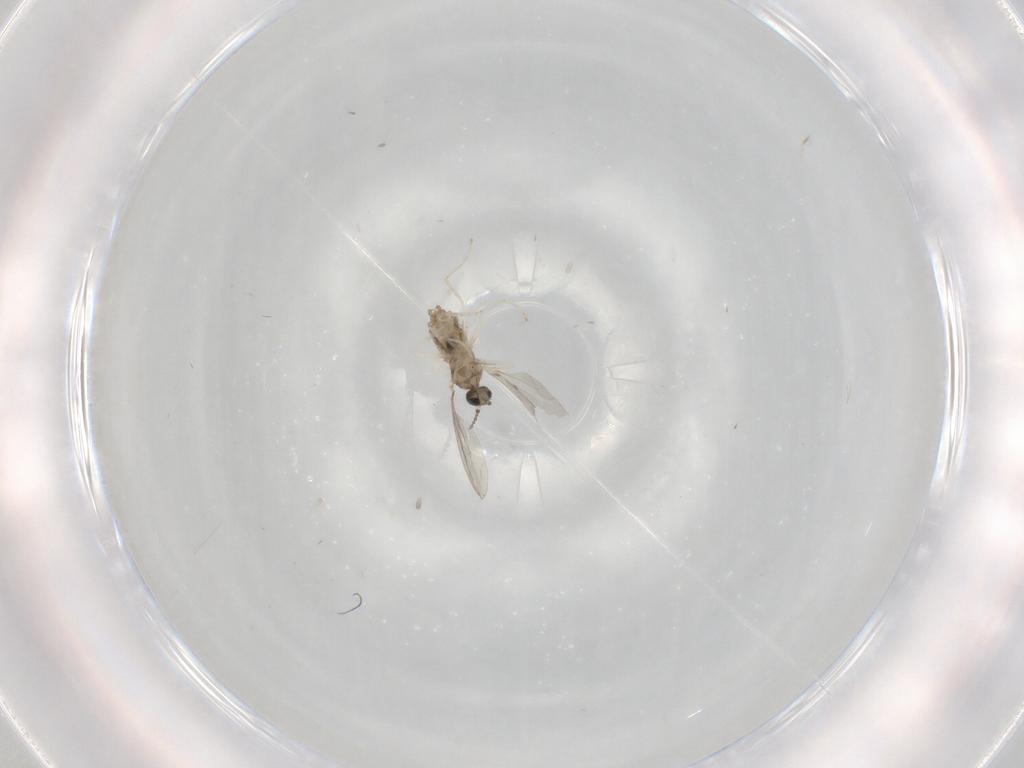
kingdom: Animalia
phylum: Arthropoda
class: Insecta
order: Diptera
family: Cecidomyiidae
